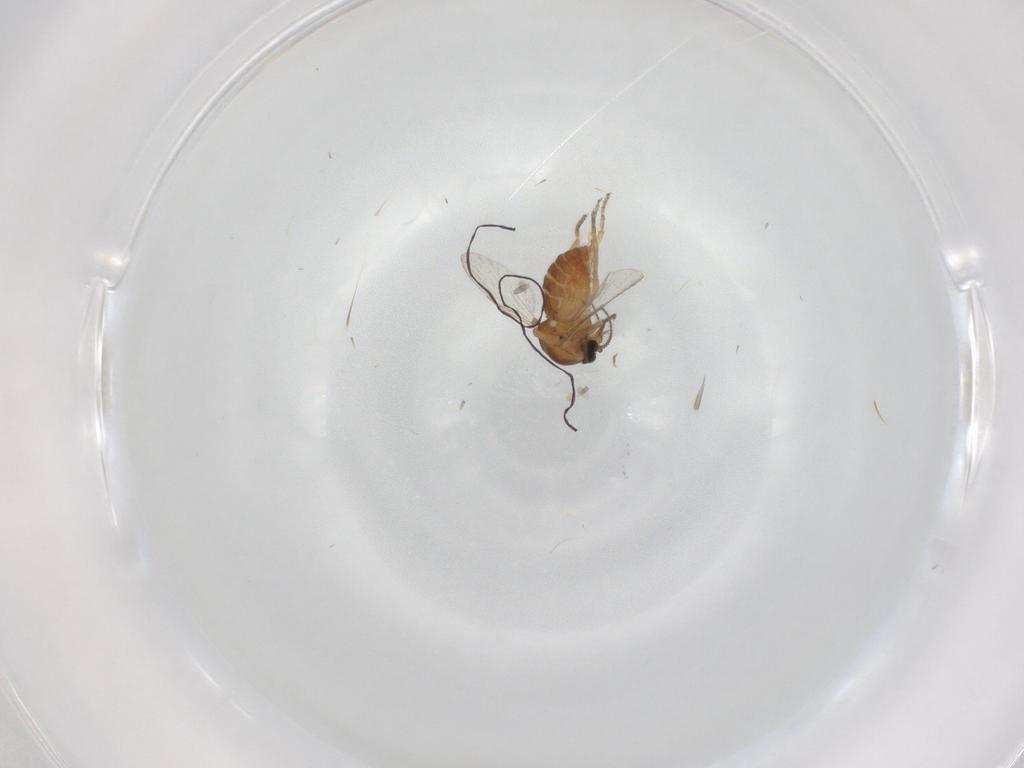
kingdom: Animalia
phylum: Arthropoda
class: Insecta
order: Diptera
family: Ceratopogonidae
